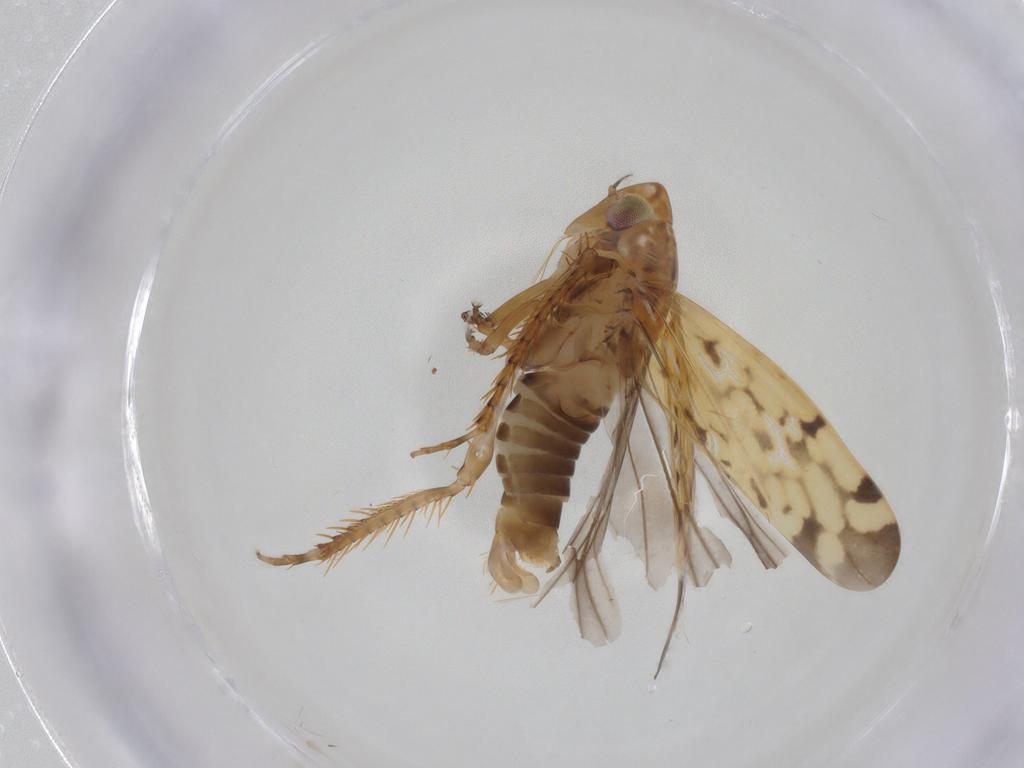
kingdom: Animalia
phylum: Arthropoda
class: Insecta
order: Hemiptera
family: Cicadellidae
